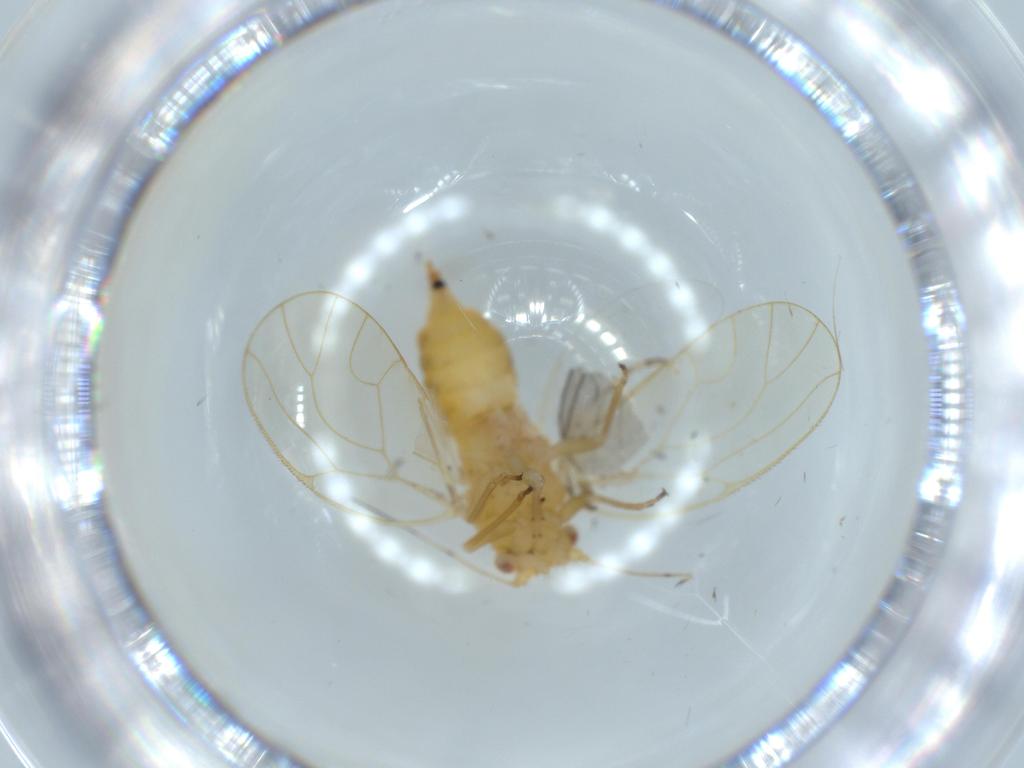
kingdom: Animalia
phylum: Arthropoda
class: Insecta
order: Hemiptera
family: Psyllidae
